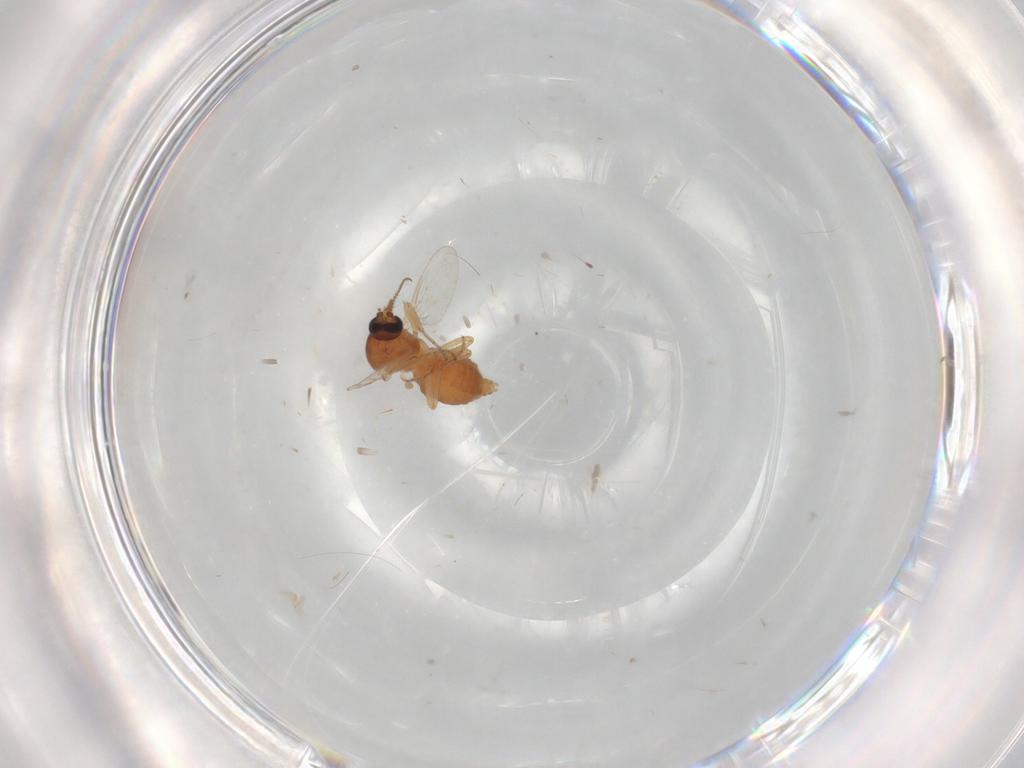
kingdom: Animalia
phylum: Arthropoda
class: Insecta
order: Diptera
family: Ceratopogonidae
